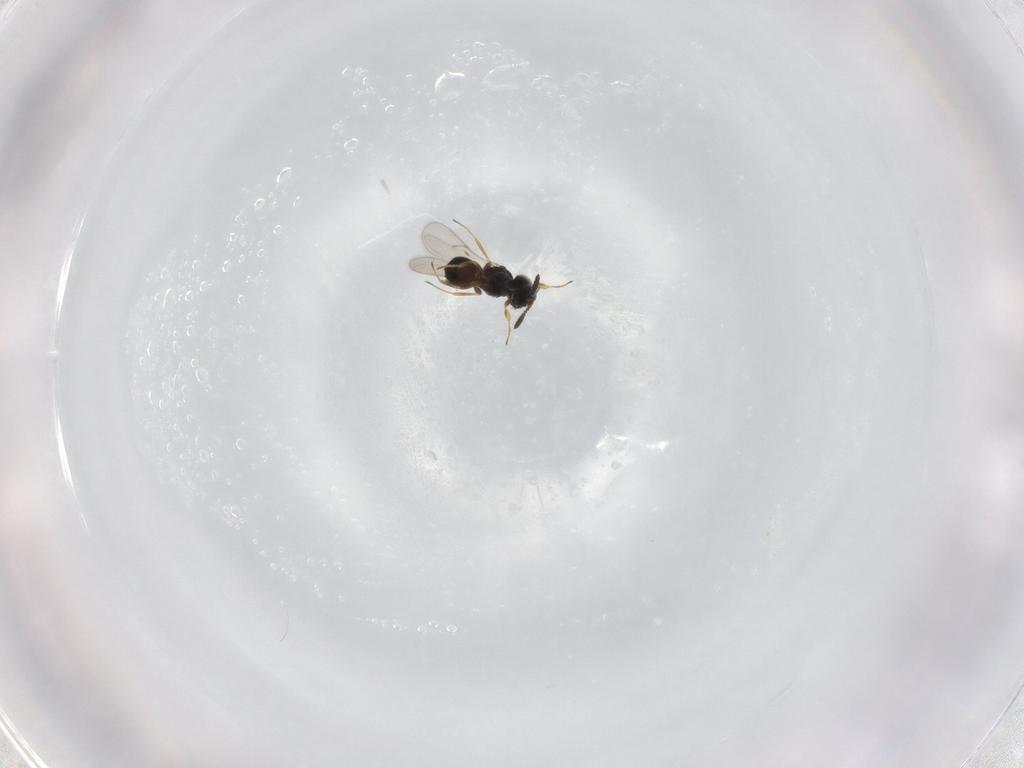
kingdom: Animalia
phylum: Arthropoda
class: Insecta
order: Hymenoptera
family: Scelionidae
